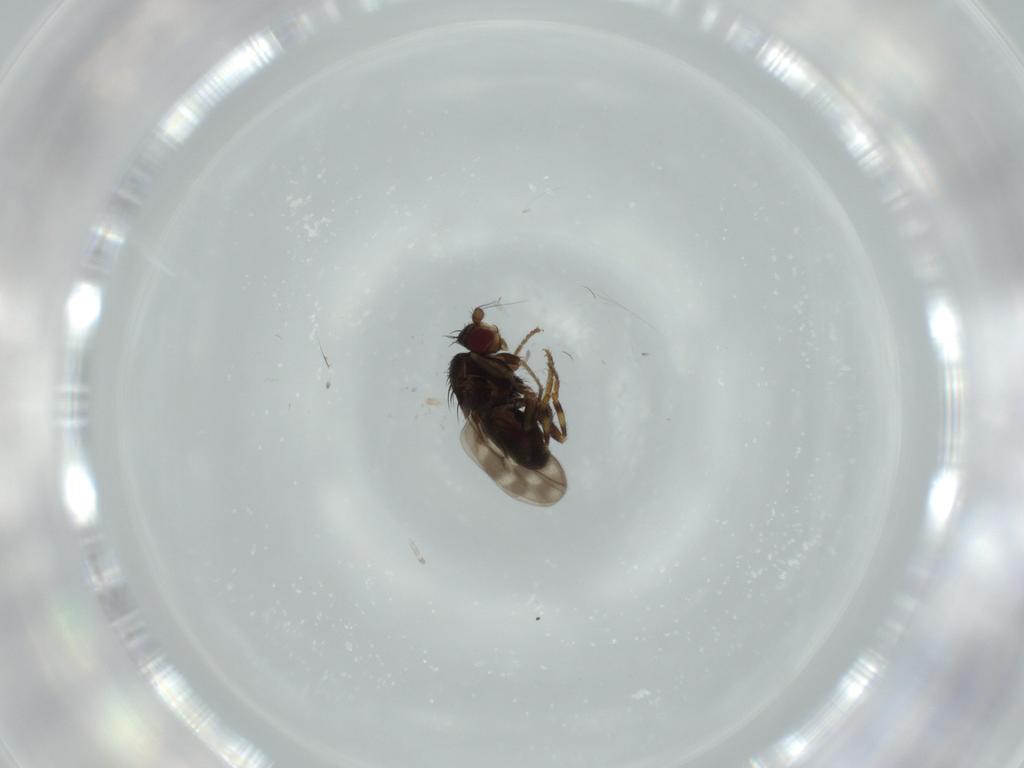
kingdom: Animalia
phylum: Arthropoda
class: Insecta
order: Diptera
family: Sphaeroceridae
